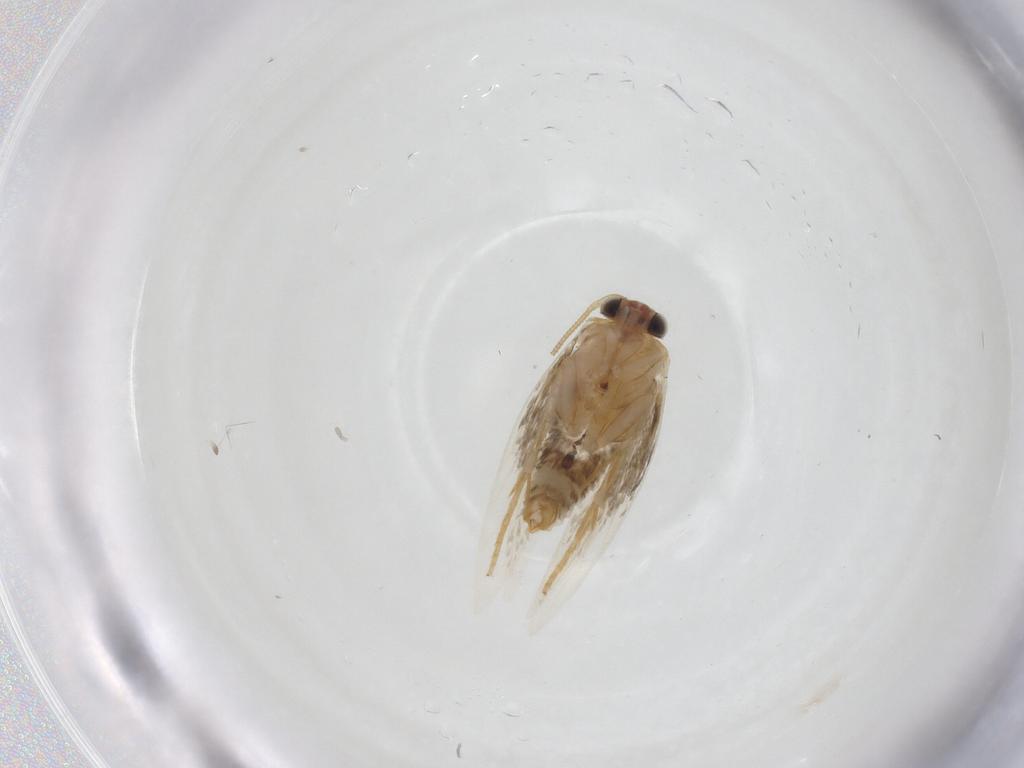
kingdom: Animalia
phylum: Arthropoda
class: Insecta
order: Lepidoptera
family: Nepticulidae
